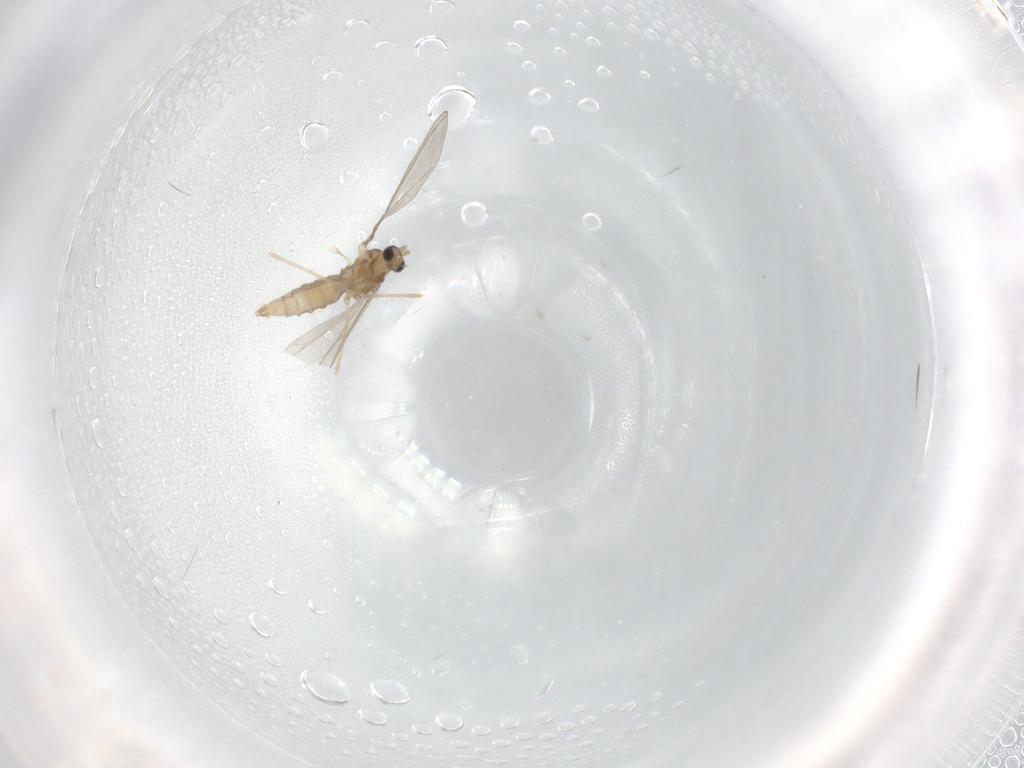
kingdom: Animalia
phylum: Arthropoda
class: Insecta
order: Diptera
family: Cecidomyiidae
